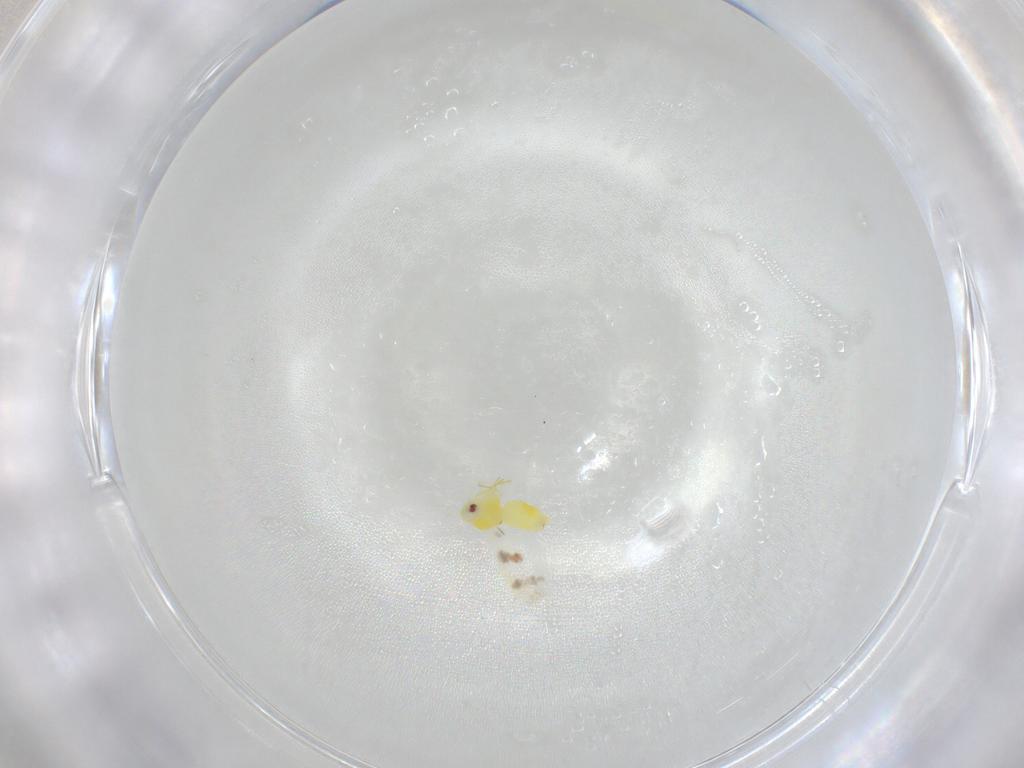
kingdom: Animalia
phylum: Arthropoda
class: Insecta
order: Hemiptera
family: Aleyrodidae
